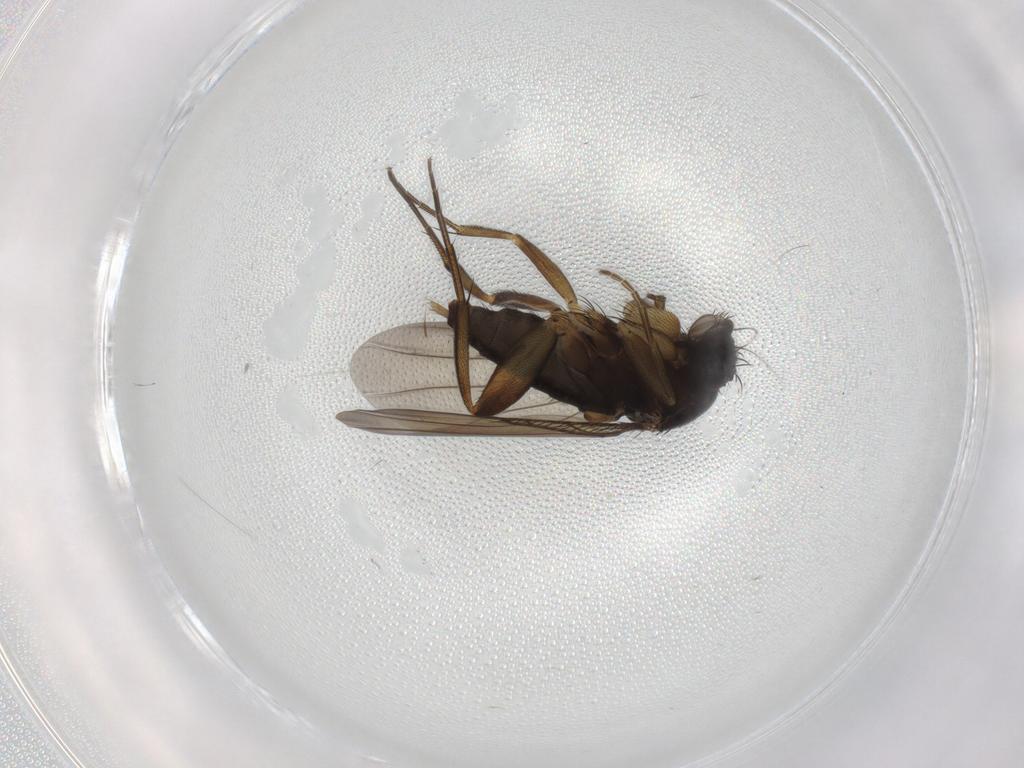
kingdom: Animalia
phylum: Arthropoda
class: Insecta
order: Diptera
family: Phoridae
